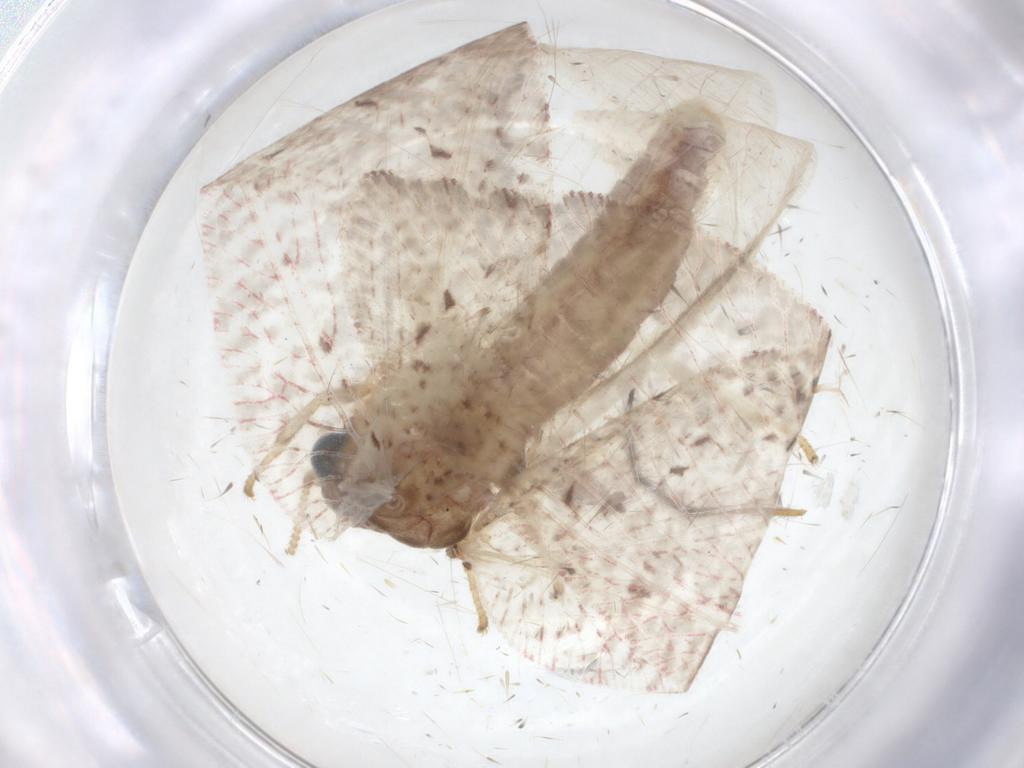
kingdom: Animalia
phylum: Arthropoda
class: Insecta
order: Neuroptera
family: Hemerobiidae
